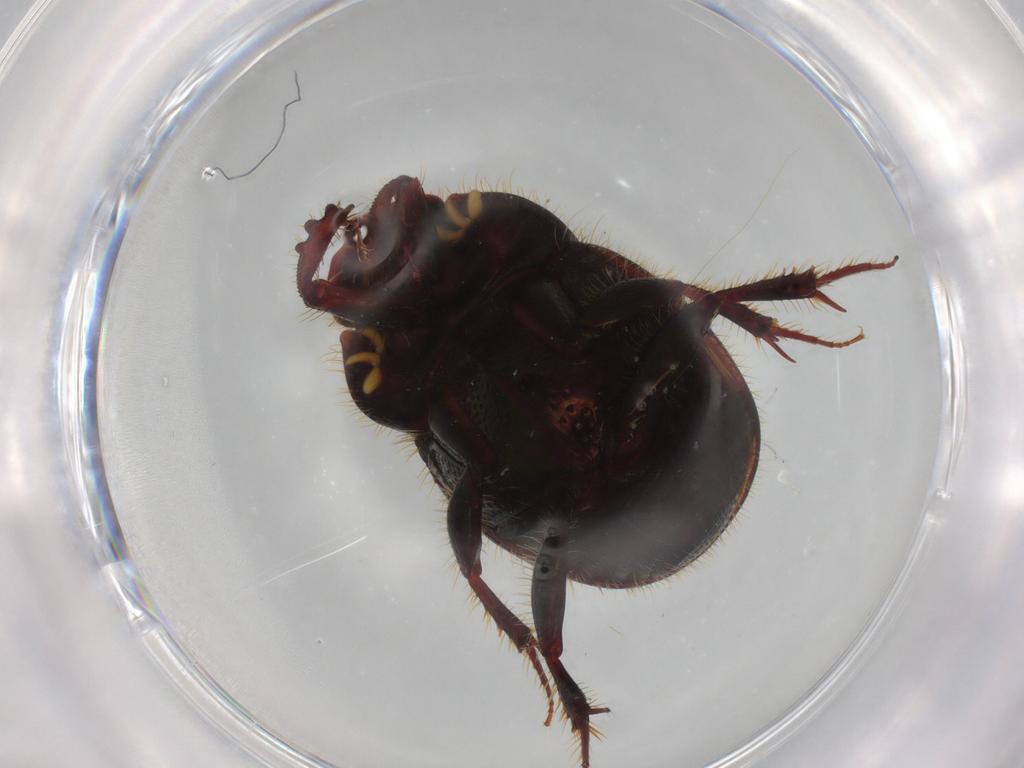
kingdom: Animalia
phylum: Arthropoda
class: Insecta
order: Coleoptera
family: Scarabaeidae
